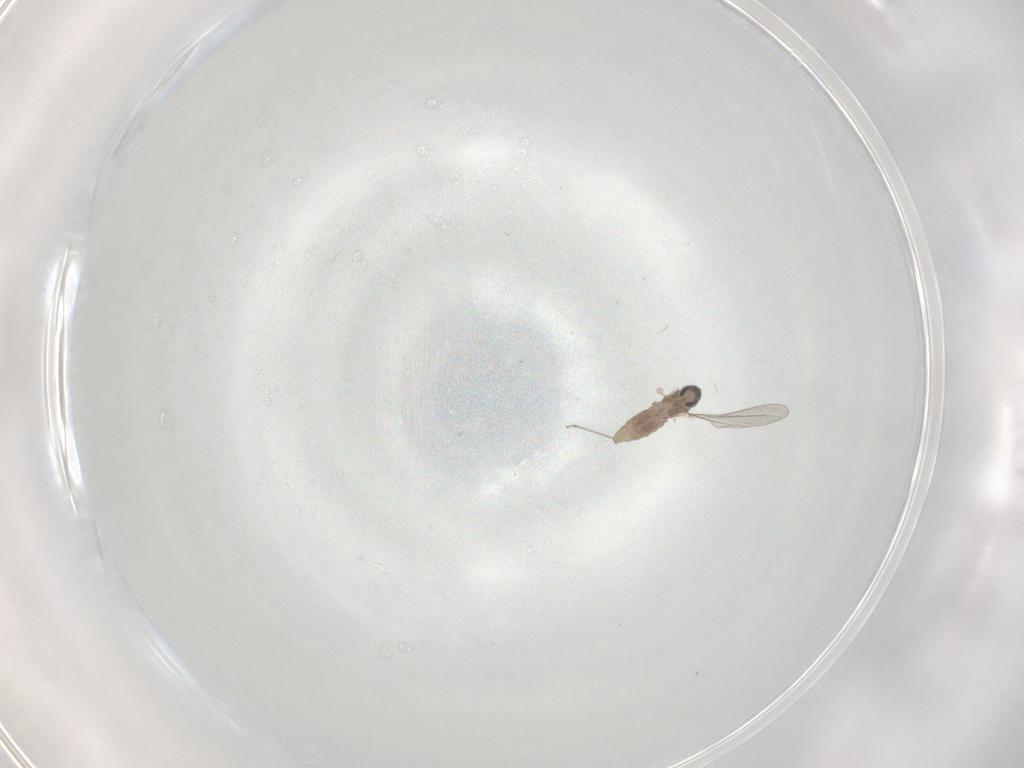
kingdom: Animalia
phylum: Arthropoda
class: Insecta
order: Diptera
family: Cecidomyiidae
